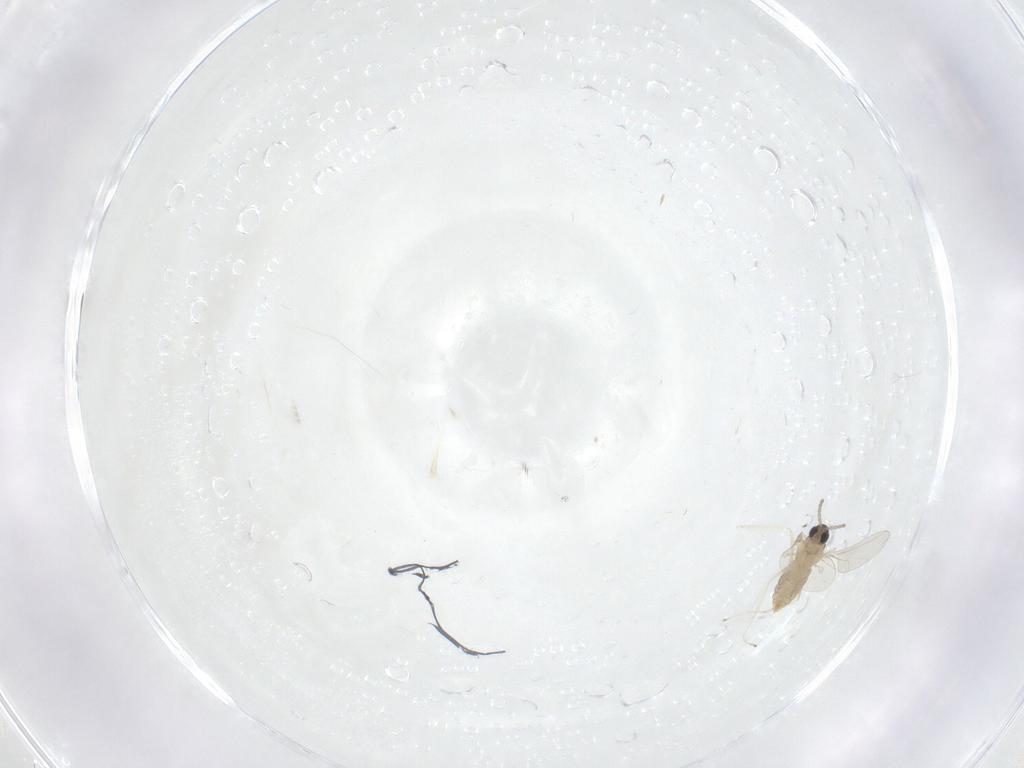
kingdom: Animalia
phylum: Arthropoda
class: Insecta
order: Diptera
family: Cecidomyiidae
